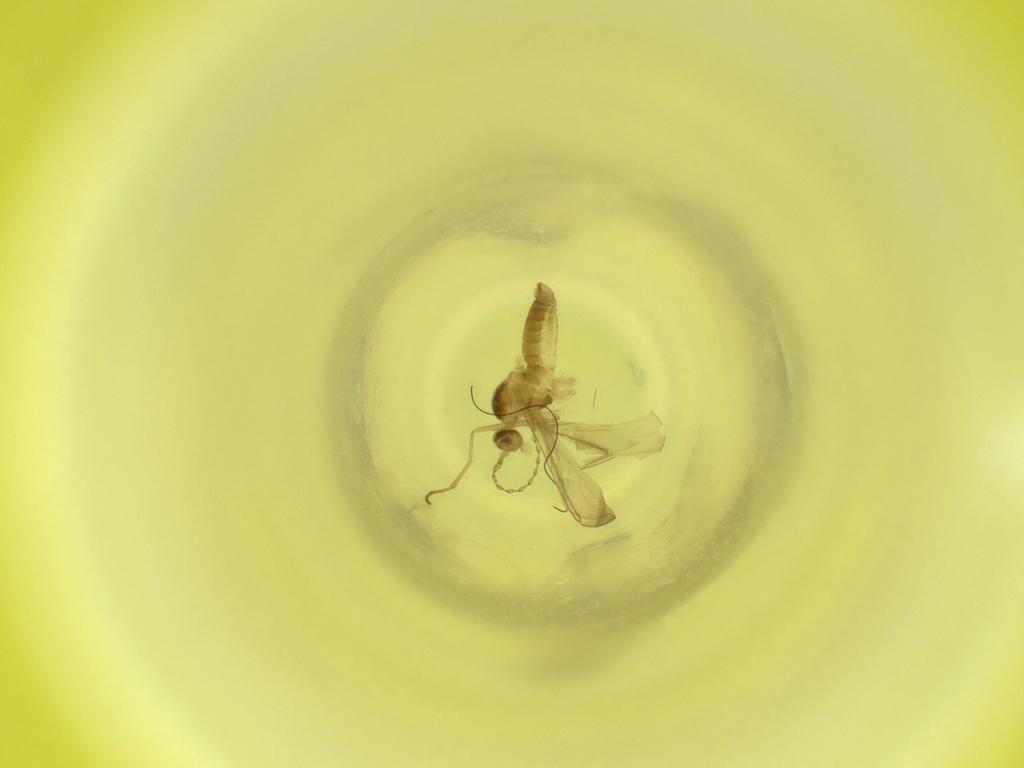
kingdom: Animalia
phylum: Arthropoda
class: Insecta
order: Diptera
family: Cecidomyiidae
